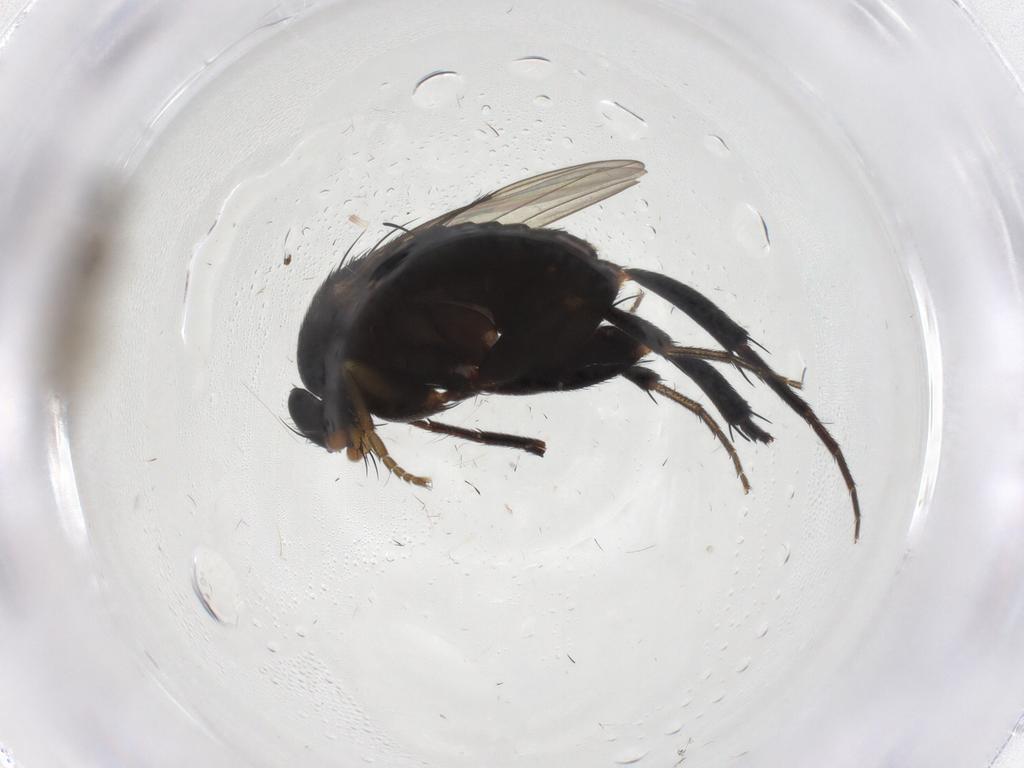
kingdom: Animalia
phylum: Arthropoda
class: Insecta
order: Diptera
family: Phoridae
